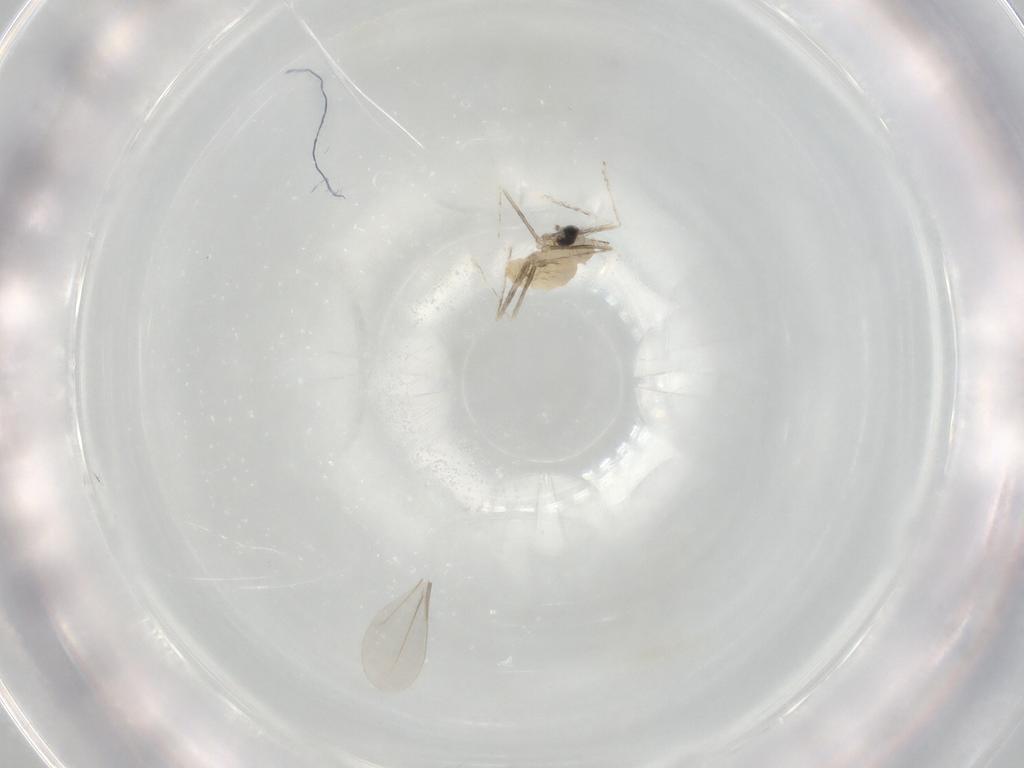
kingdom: Animalia
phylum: Arthropoda
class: Insecta
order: Diptera
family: Cecidomyiidae
